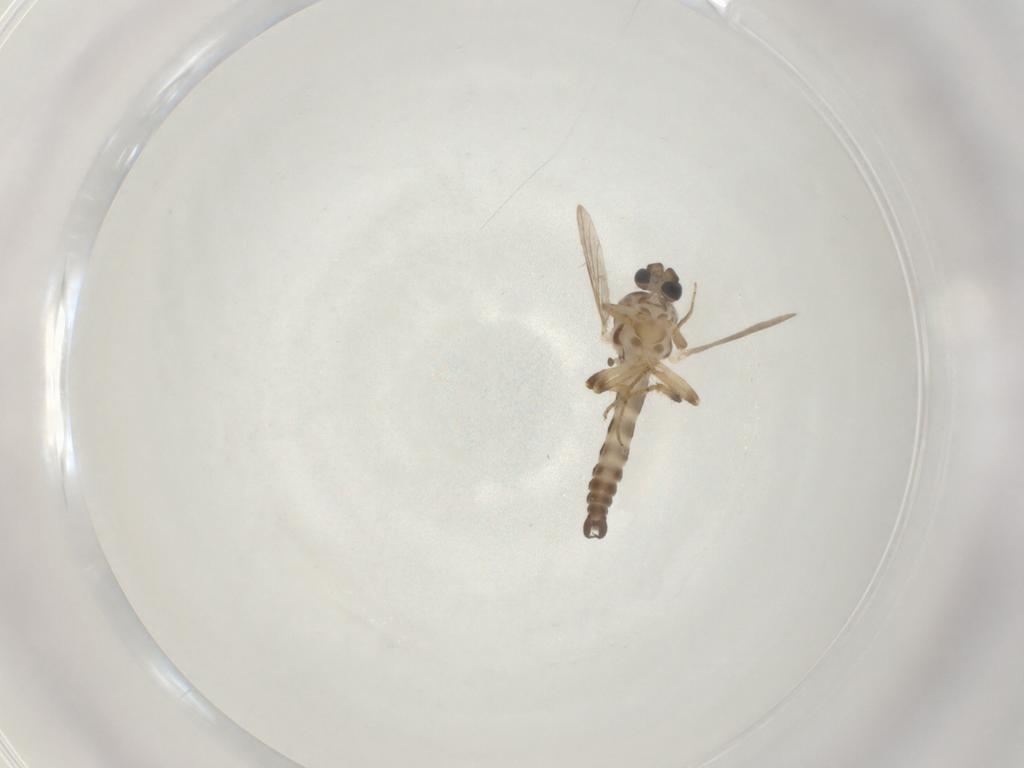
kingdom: Animalia
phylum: Arthropoda
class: Insecta
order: Diptera
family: Ceratopogonidae
